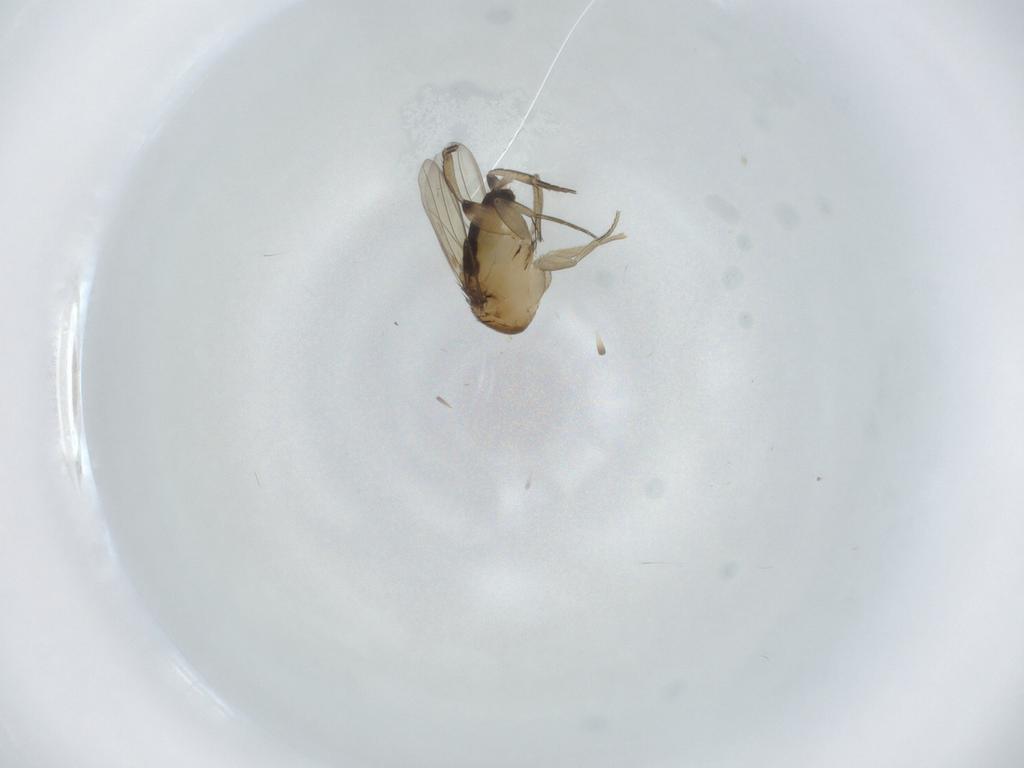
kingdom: Animalia
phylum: Arthropoda
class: Insecta
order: Diptera
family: Phoridae
